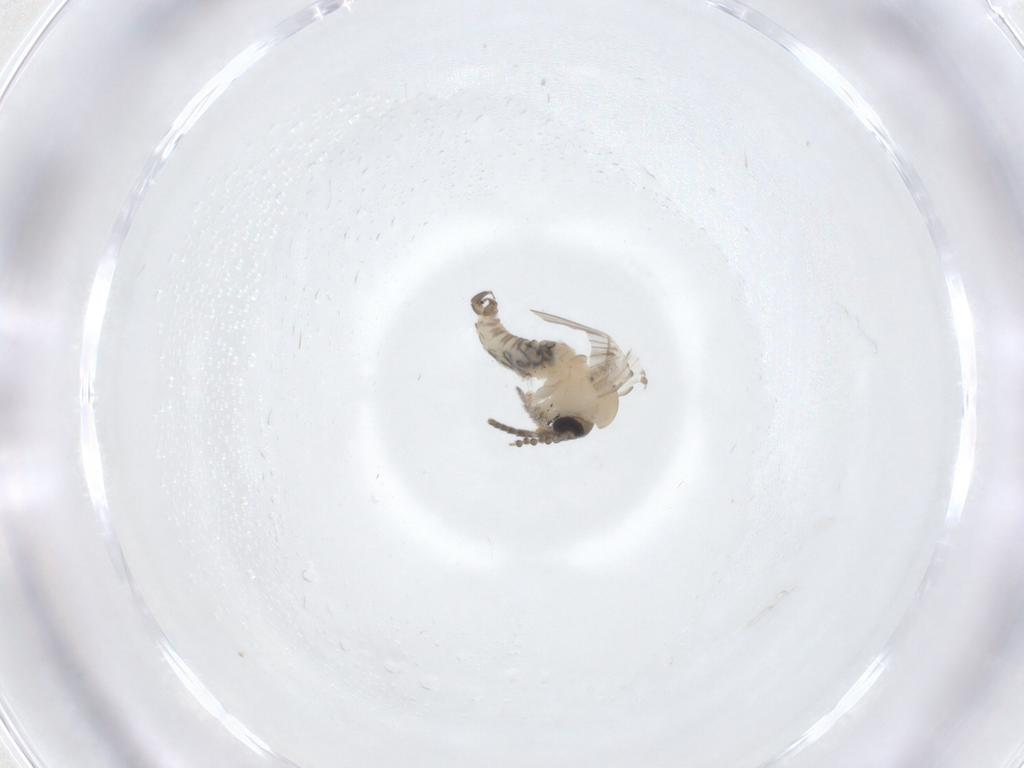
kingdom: Animalia
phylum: Arthropoda
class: Insecta
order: Diptera
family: Psychodidae
